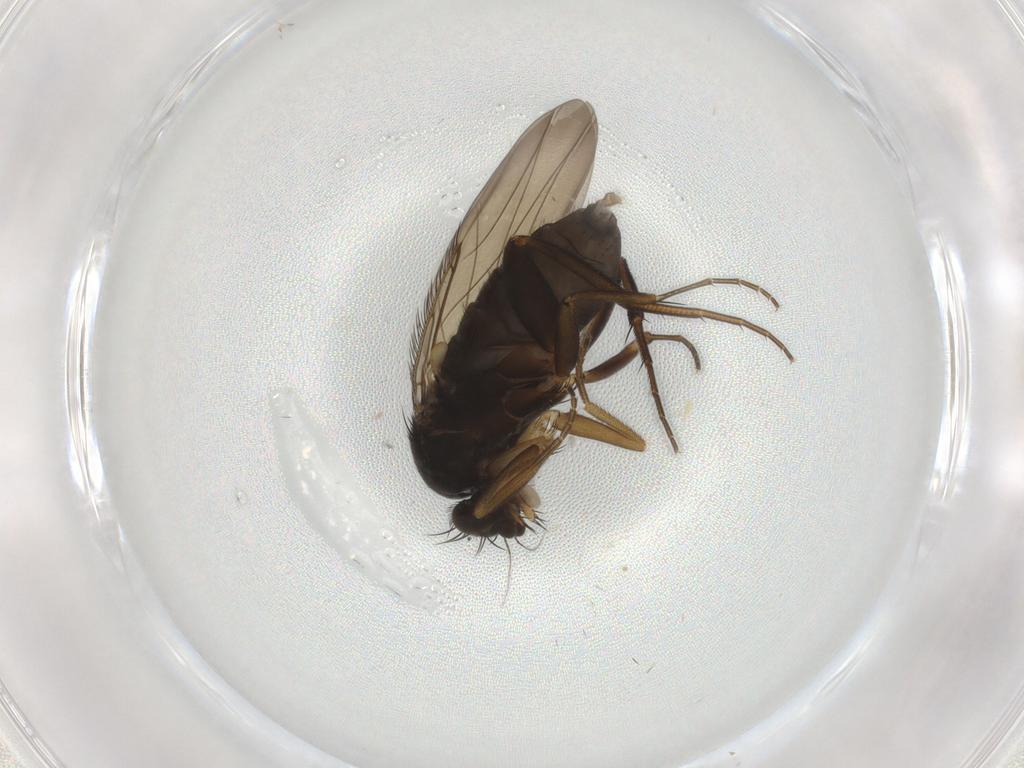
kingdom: Animalia
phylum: Arthropoda
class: Insecta
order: Diptera
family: Phoridae
